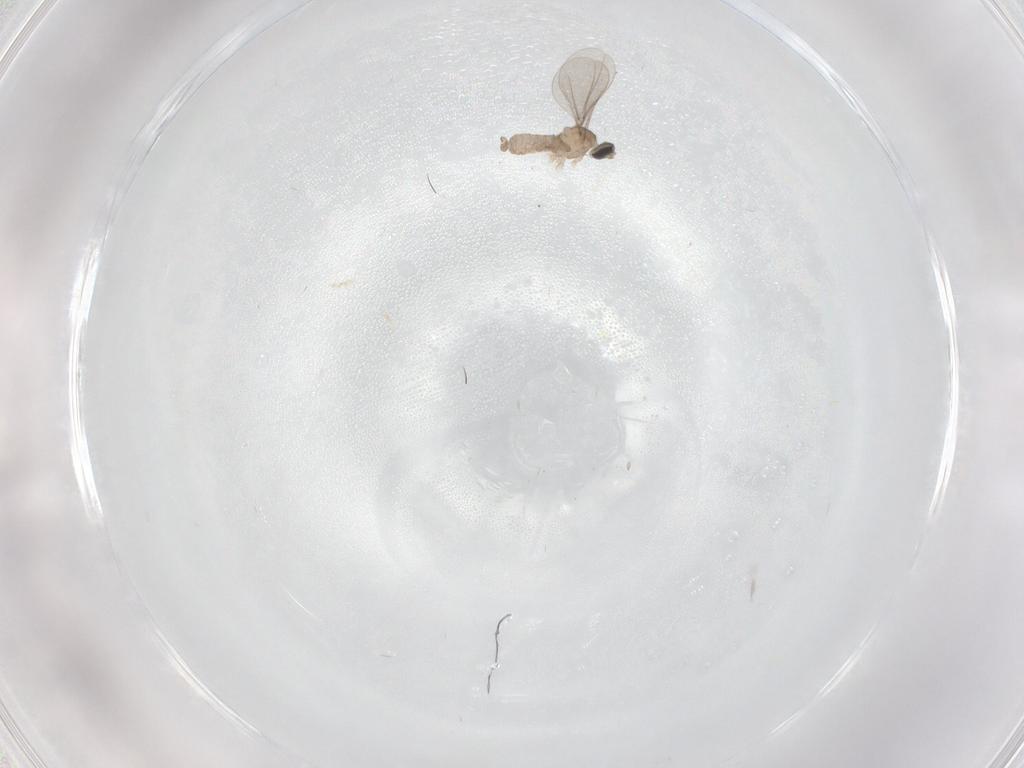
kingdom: Animalia
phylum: Arthropoda
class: Insecta
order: Diptera
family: Cecidomyiidae
